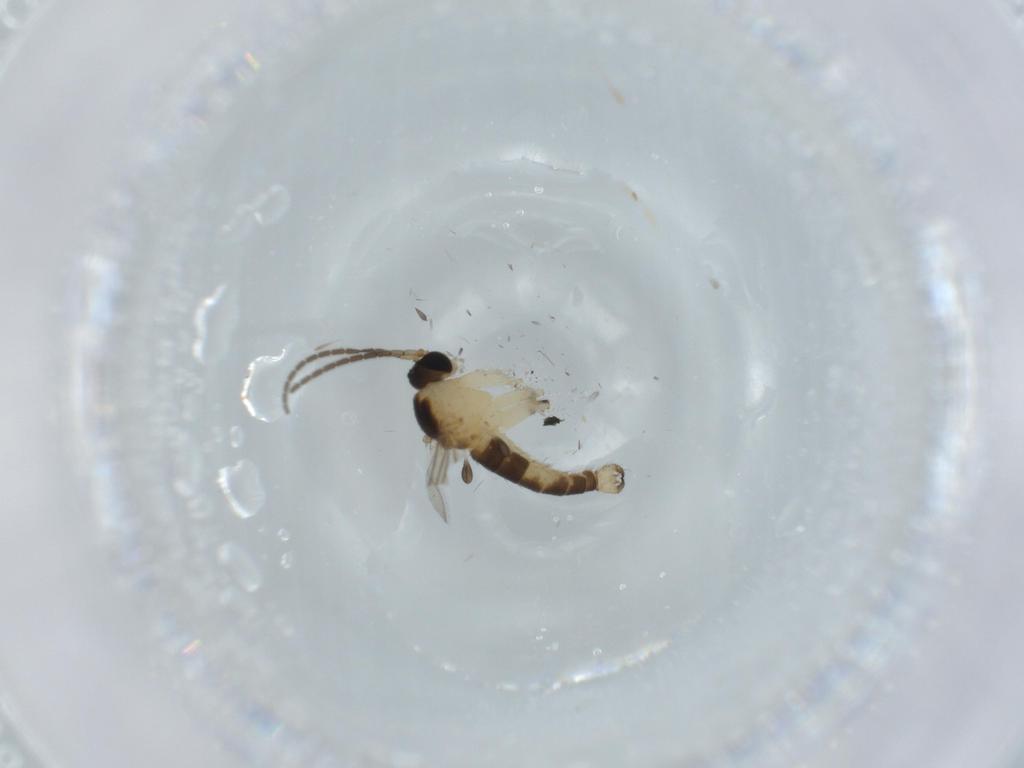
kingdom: Animalia
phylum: Arthropoda
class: Insecta
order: Diptera
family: Sciaridae
